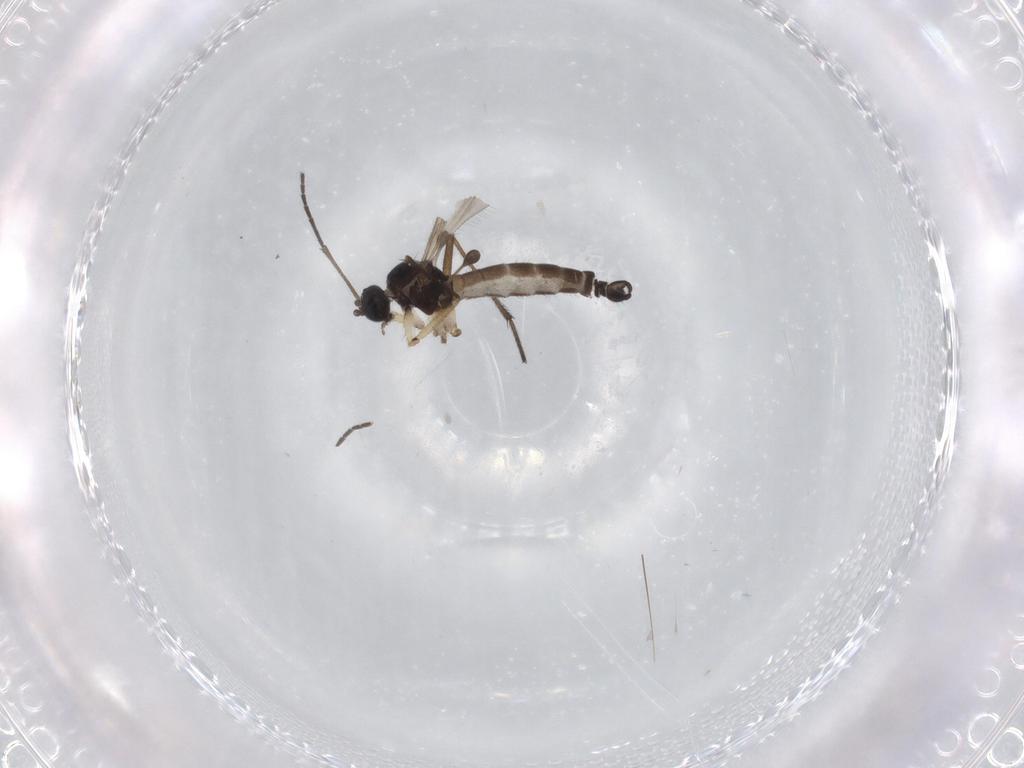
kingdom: Animalia
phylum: Arthropoda
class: Insecta
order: Diptera
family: Sciaridae
